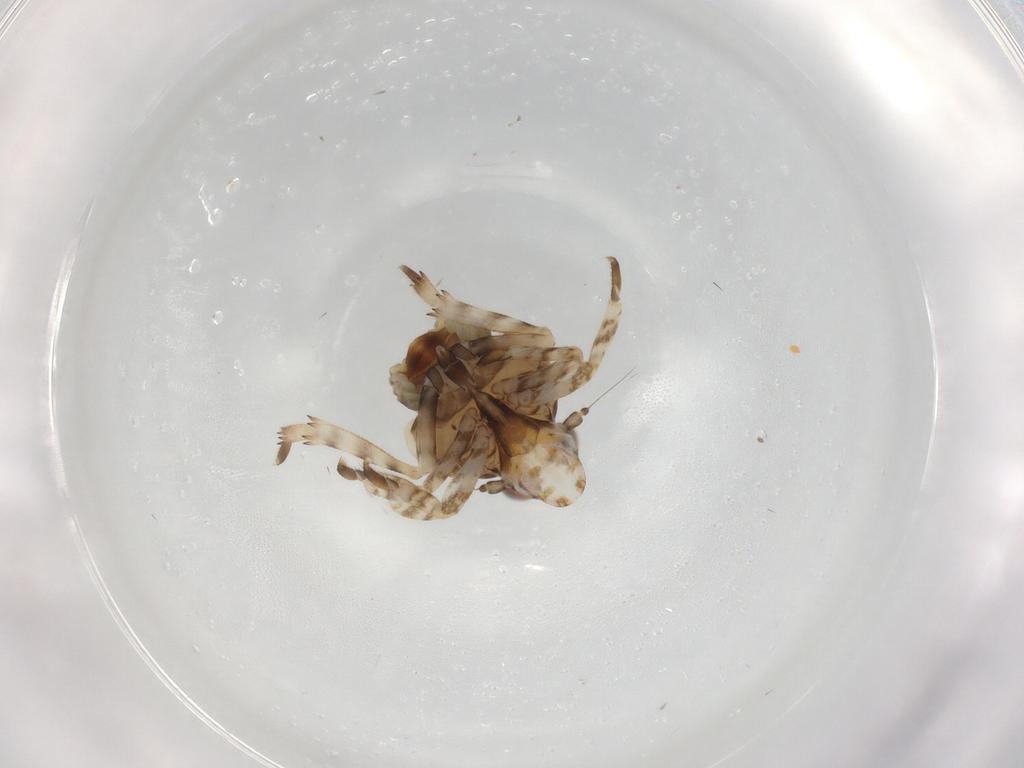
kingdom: Animalia
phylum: Arthropoda
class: Insecta
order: Hemiptera
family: Eurybrachidae
